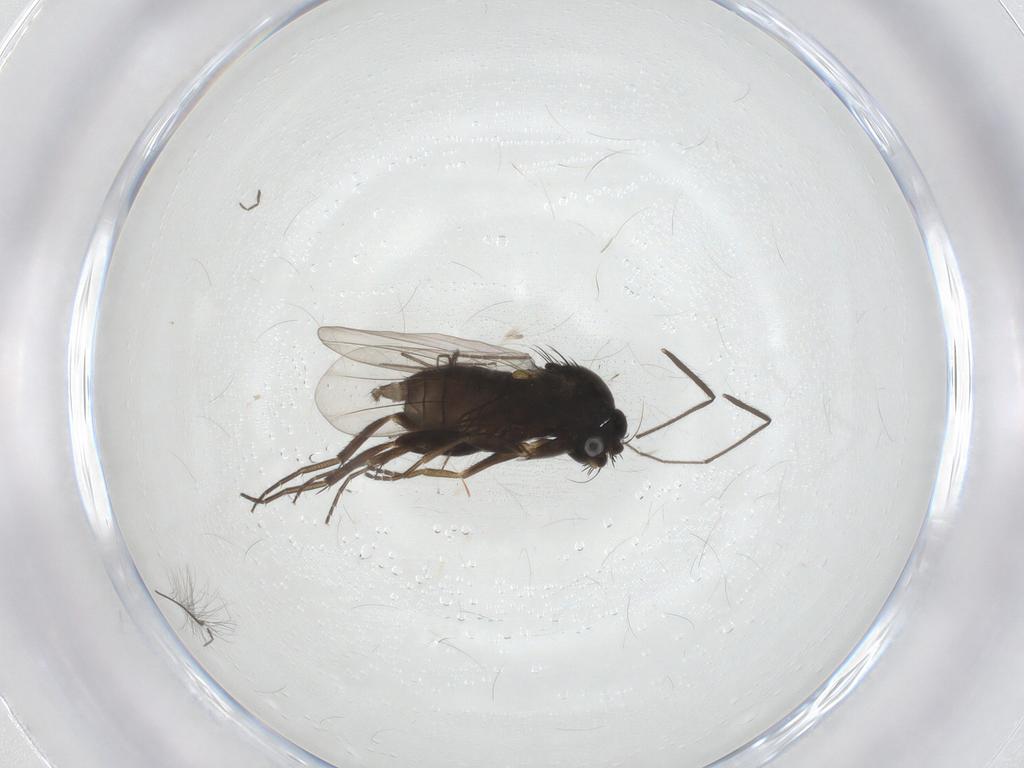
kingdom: Animalia
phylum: Arthropoda
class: Insecta
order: Diptera
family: Phoridae
